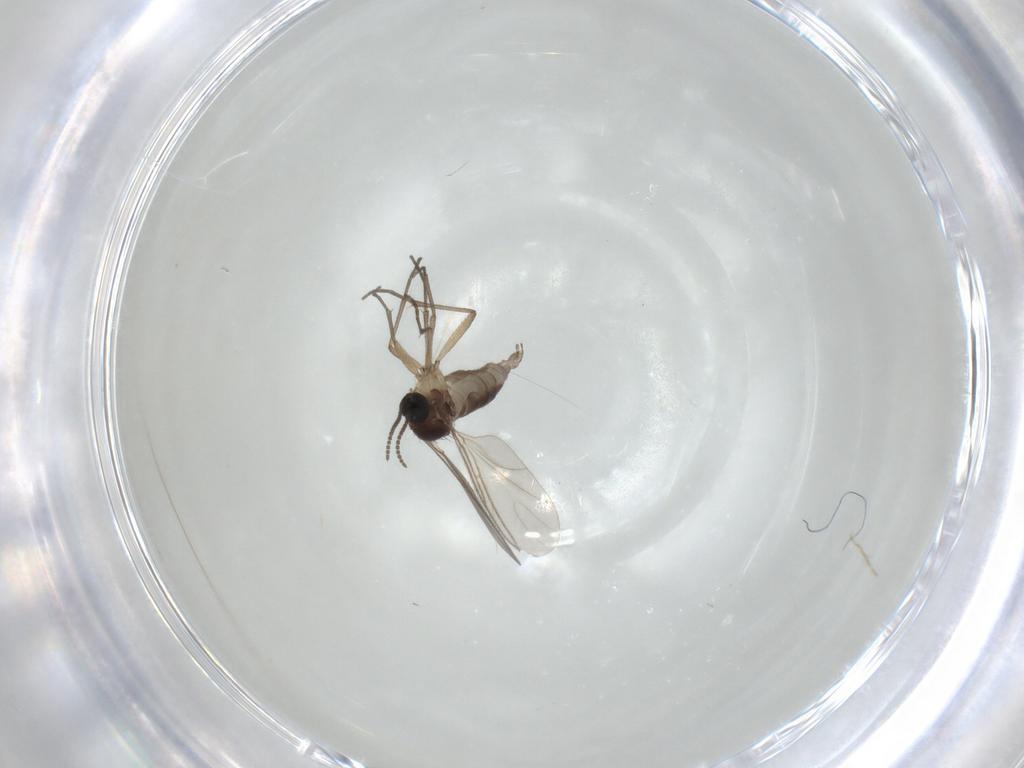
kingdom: Animalia
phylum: Arthropoda
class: Insecta
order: Diptera
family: Chironomidae
